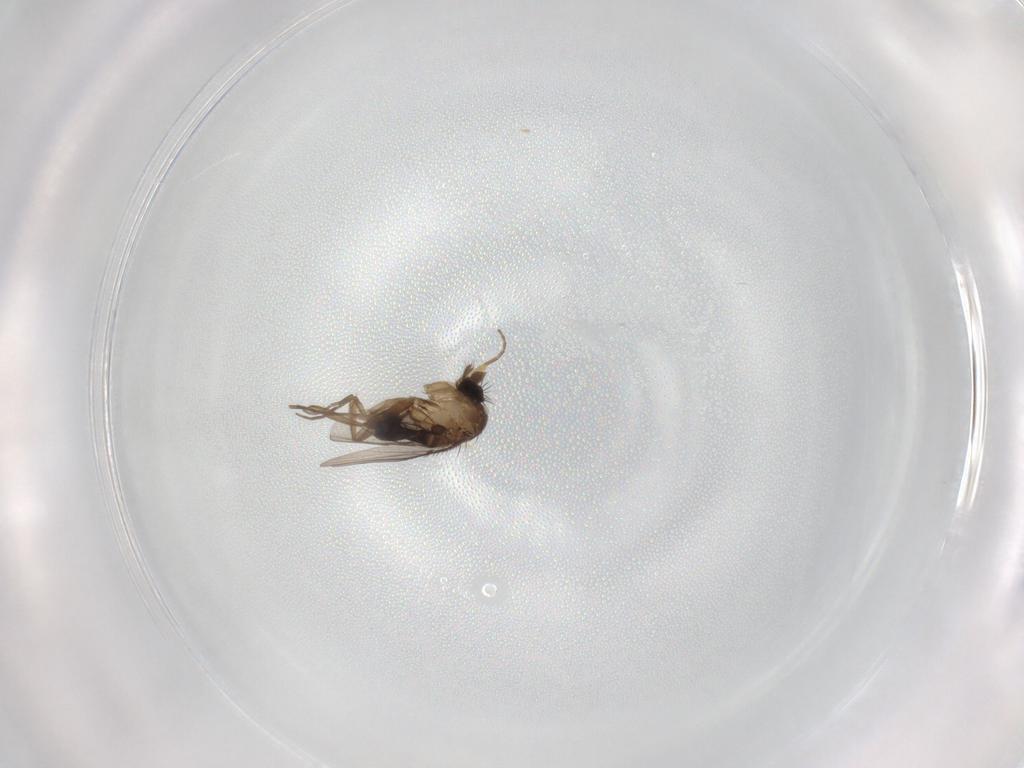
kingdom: Animalia
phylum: Arthropoda
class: Insecta
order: Diptera
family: Phoridae
